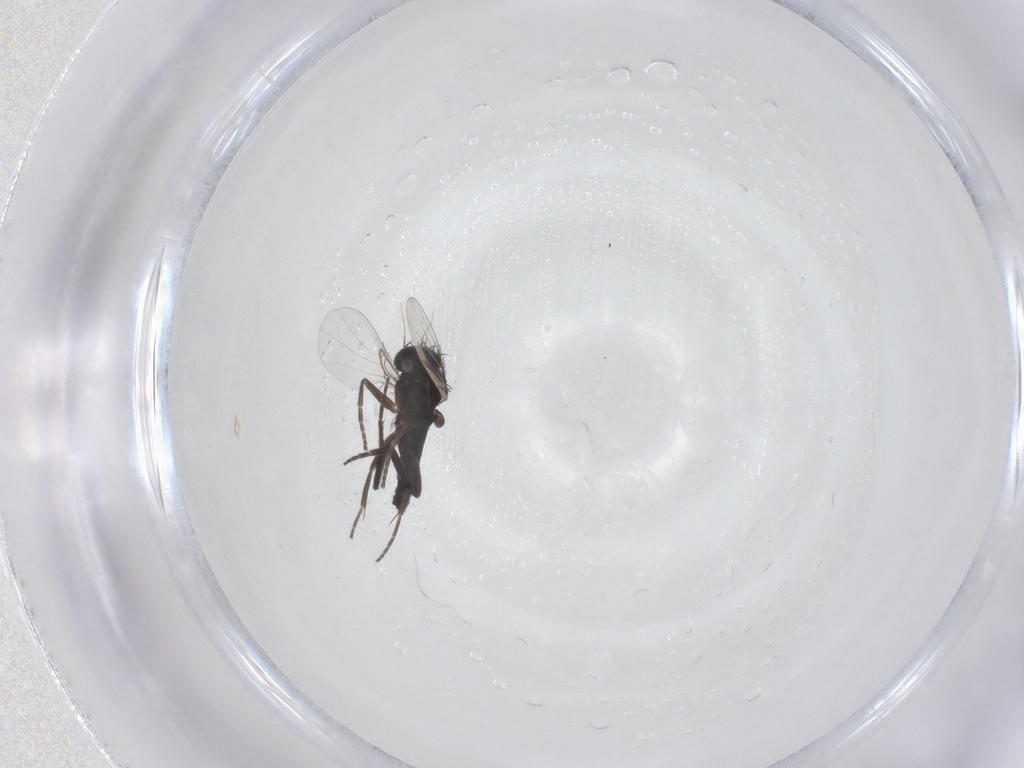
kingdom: Animalia
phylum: Arthropoda
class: Insecta
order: Diptera
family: Phoridae
